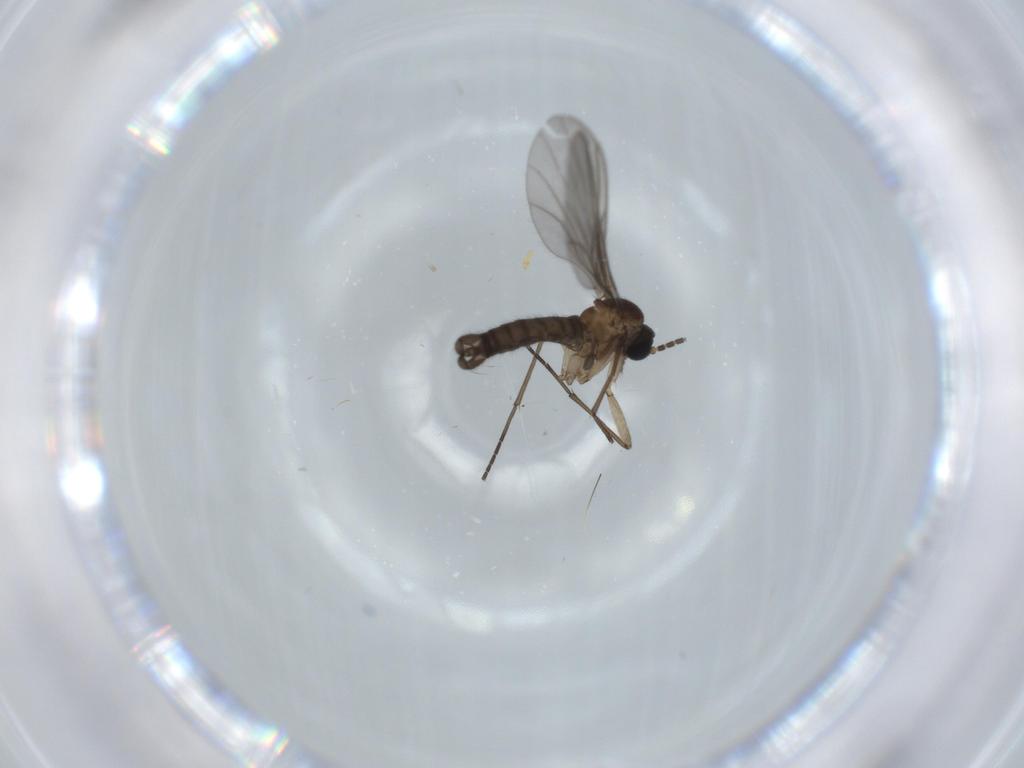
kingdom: Animalia
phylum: Arthropoda
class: Insecta
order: Diptera
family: Sciaridae
